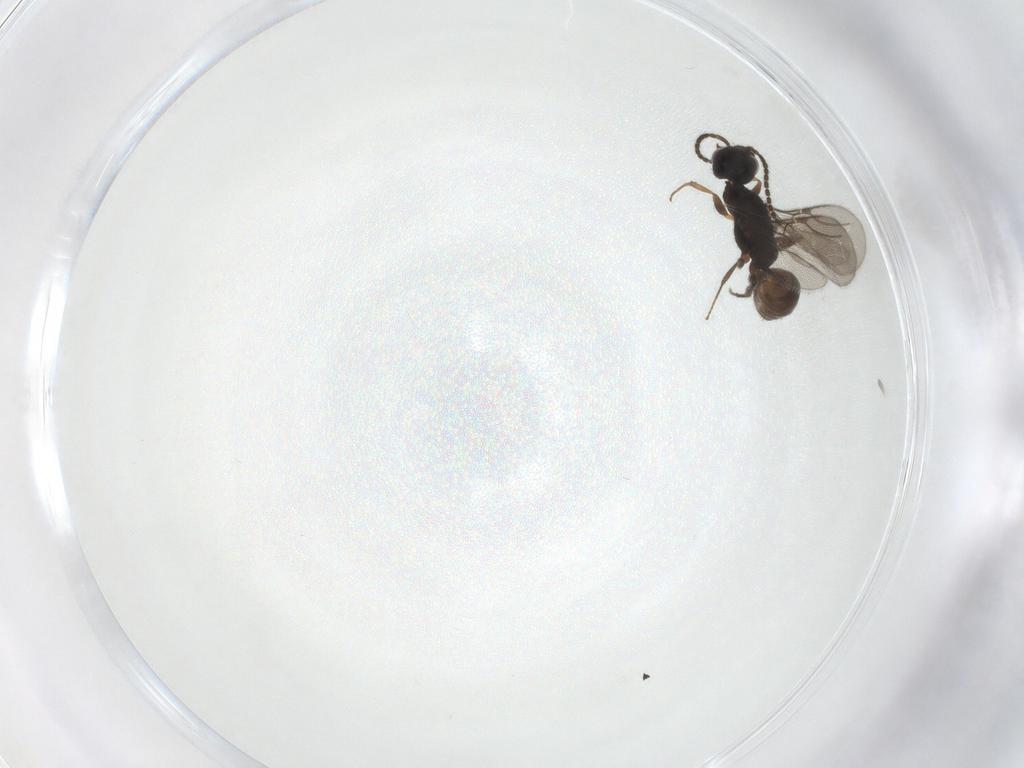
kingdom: Animalia
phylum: Arthropoda
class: Insecta
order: Hymenoptera
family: Bethylidae
